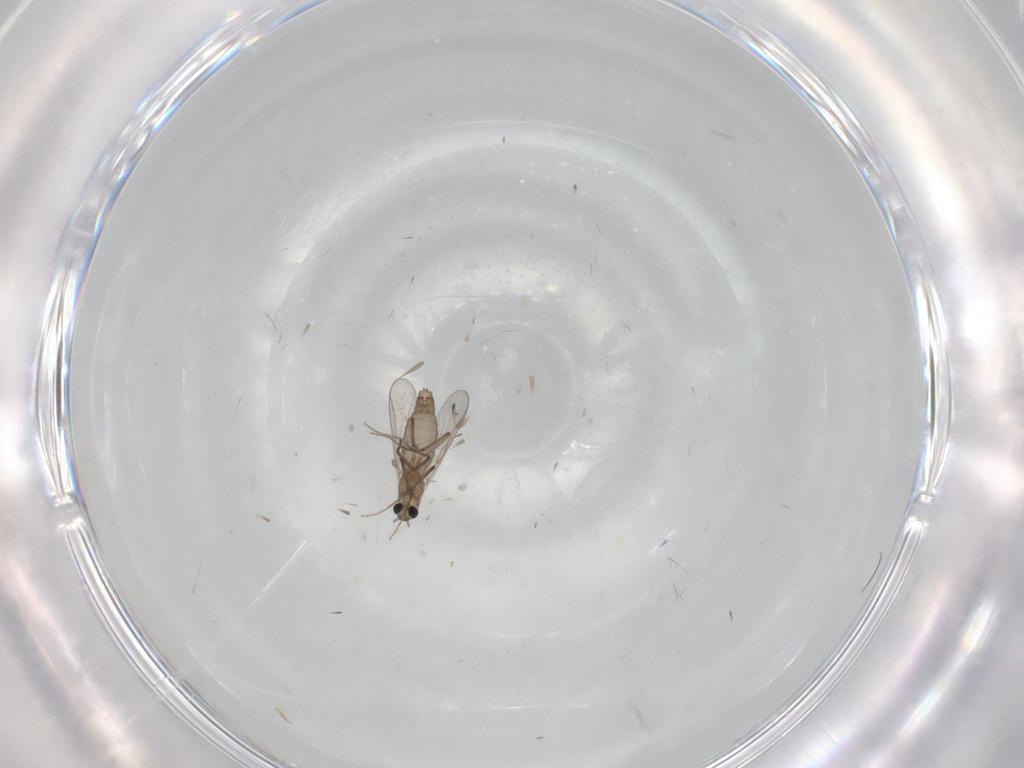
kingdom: Animalia
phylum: Arthropoda
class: Insecta
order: Diptera
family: Chironomidae
